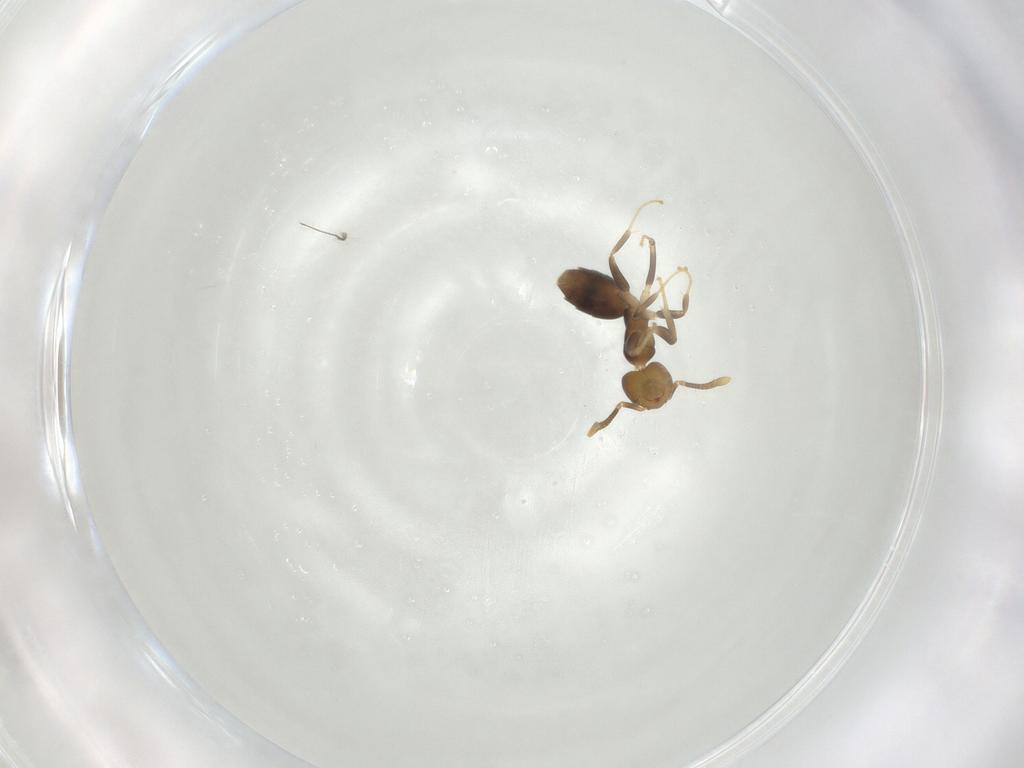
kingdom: Animalia
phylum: Arthropoda
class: Insecta
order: Hymenoptera
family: Formicidae
